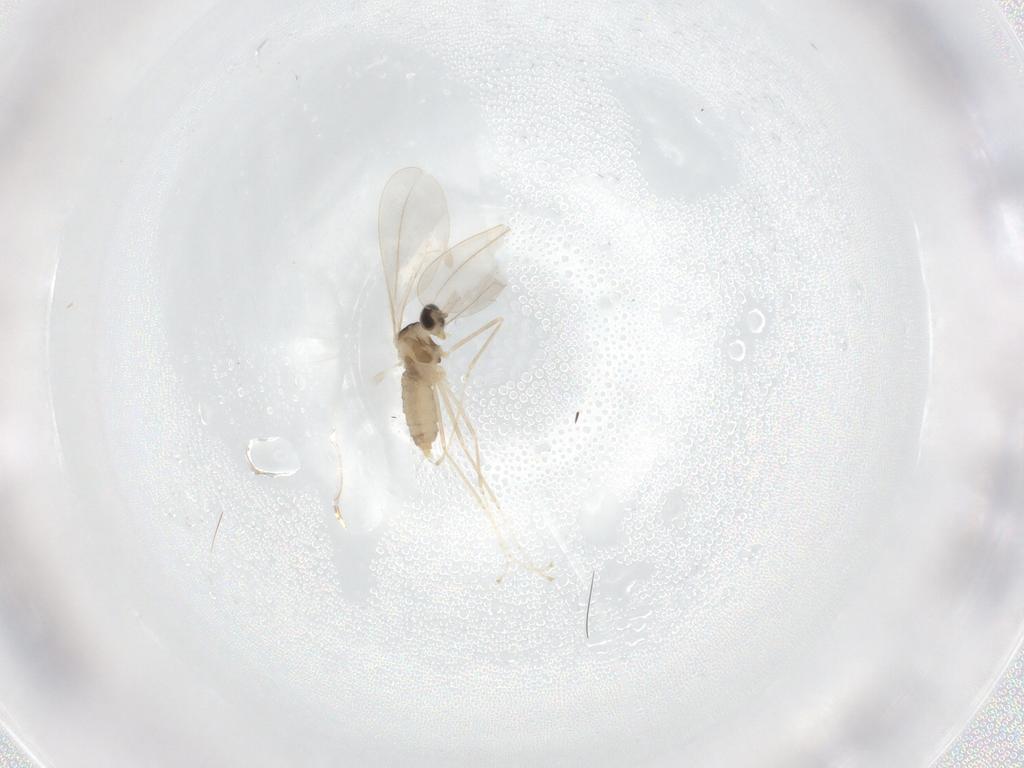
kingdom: Animalia
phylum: Arthropoda
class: Insecta
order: Diptera
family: Cecidomyiidae
